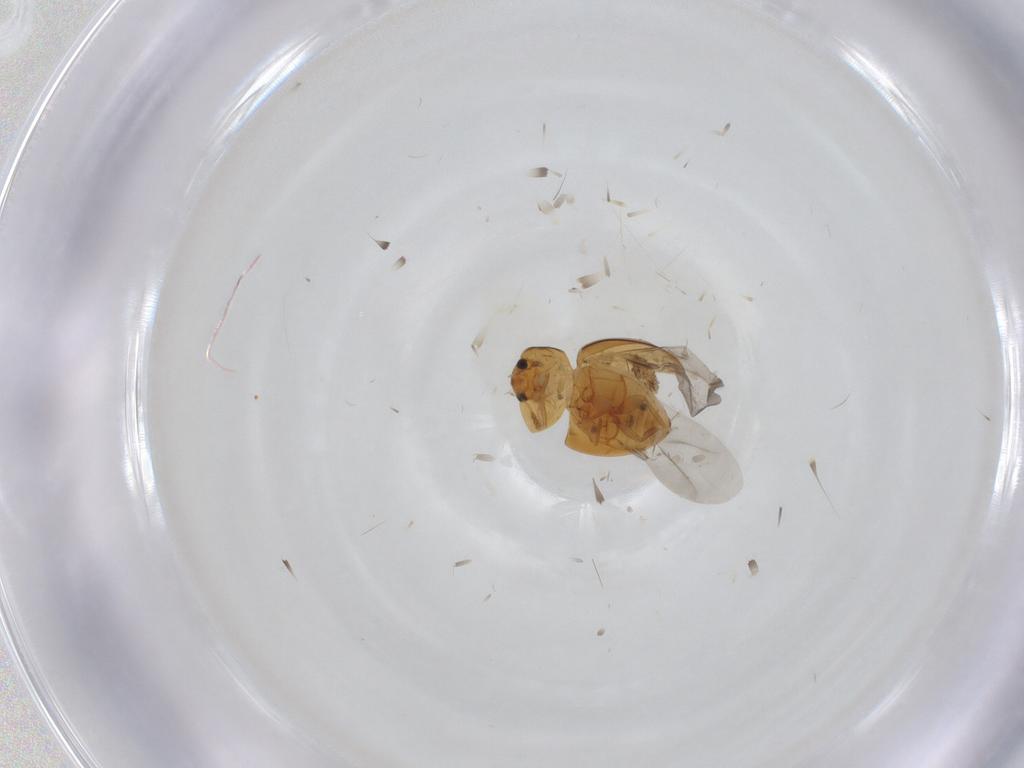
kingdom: Animalia
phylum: Arthropoda
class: Insecta
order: Coleoptera
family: Phalacridae
